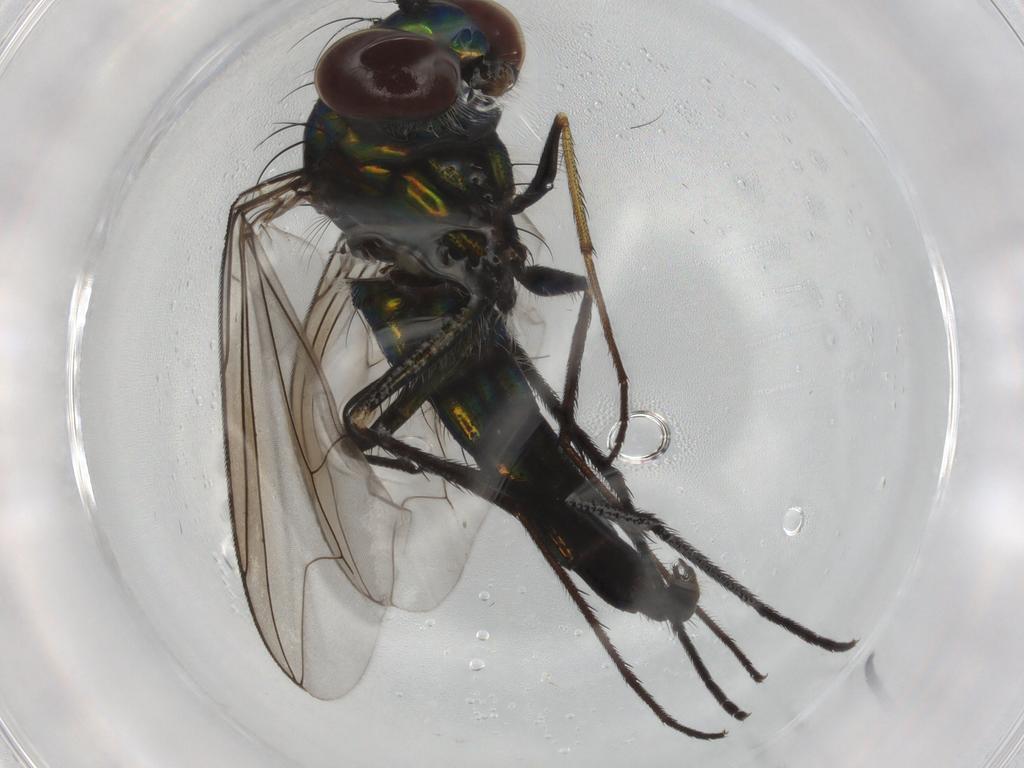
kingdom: Animalia
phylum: Arthropoda
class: Insecta
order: Diptera
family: Dolichopodidae
